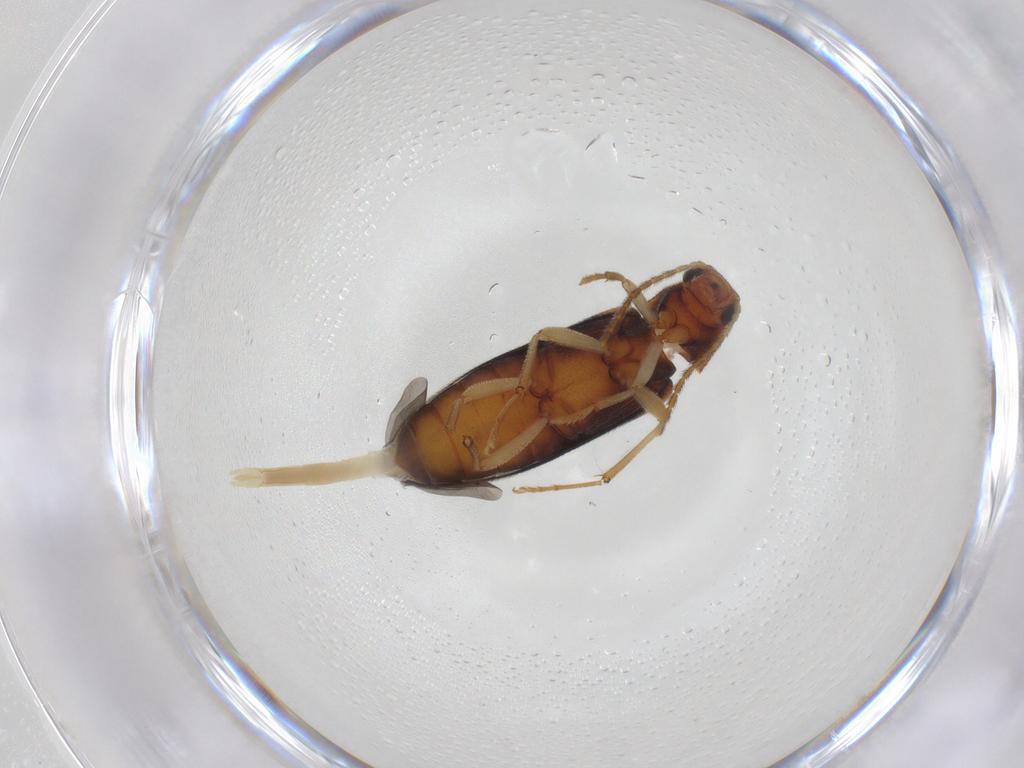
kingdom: Animalia
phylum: Arthropoda
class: Insecta
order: Coleoptera
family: Melandryidae
